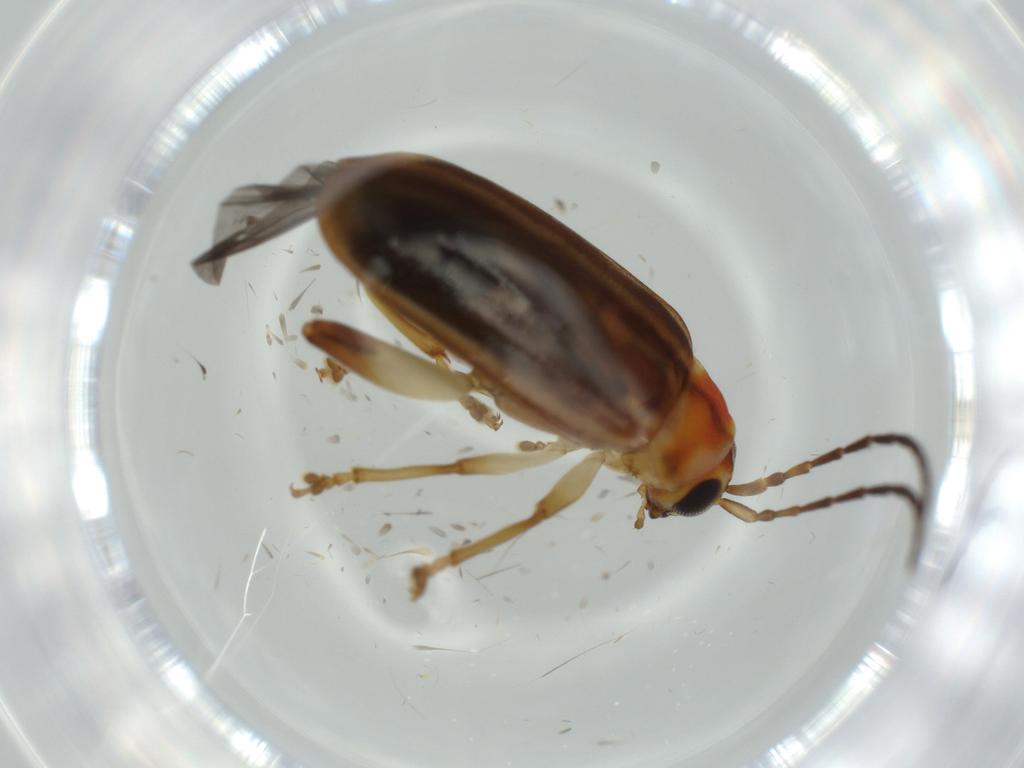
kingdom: Animalia
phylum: Arthropoda
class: Insecta
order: Coleoptera
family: Chrysomelidae
